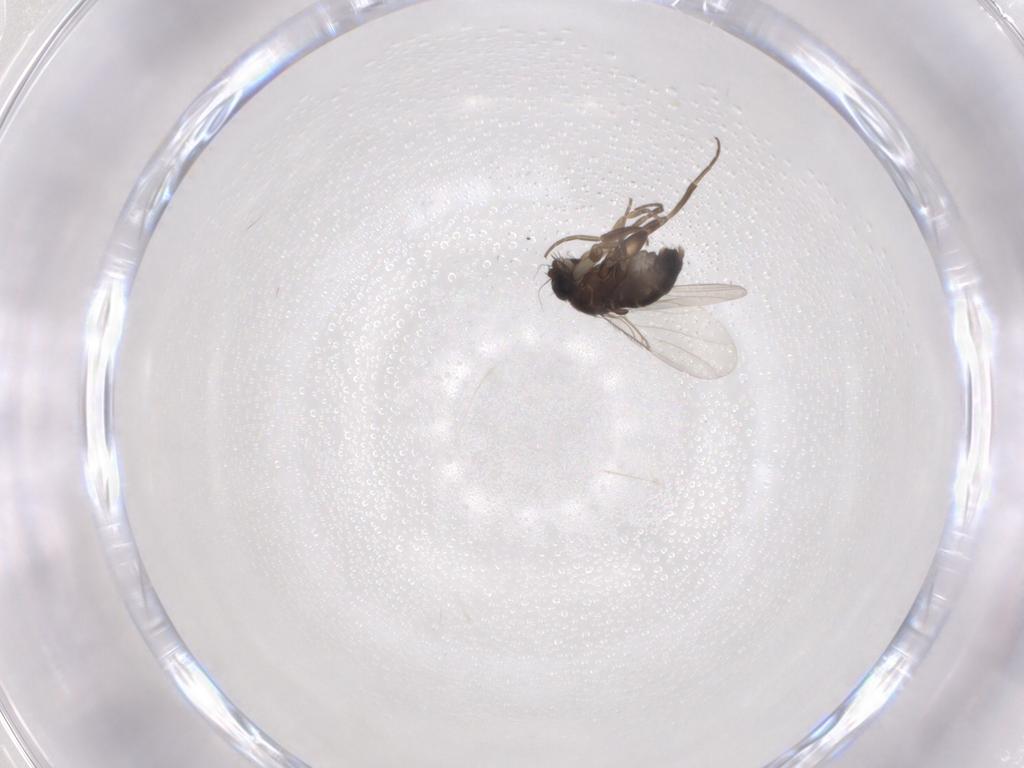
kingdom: Animalia
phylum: Arthropoda
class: Insecta
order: Diptera
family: Phoridae
